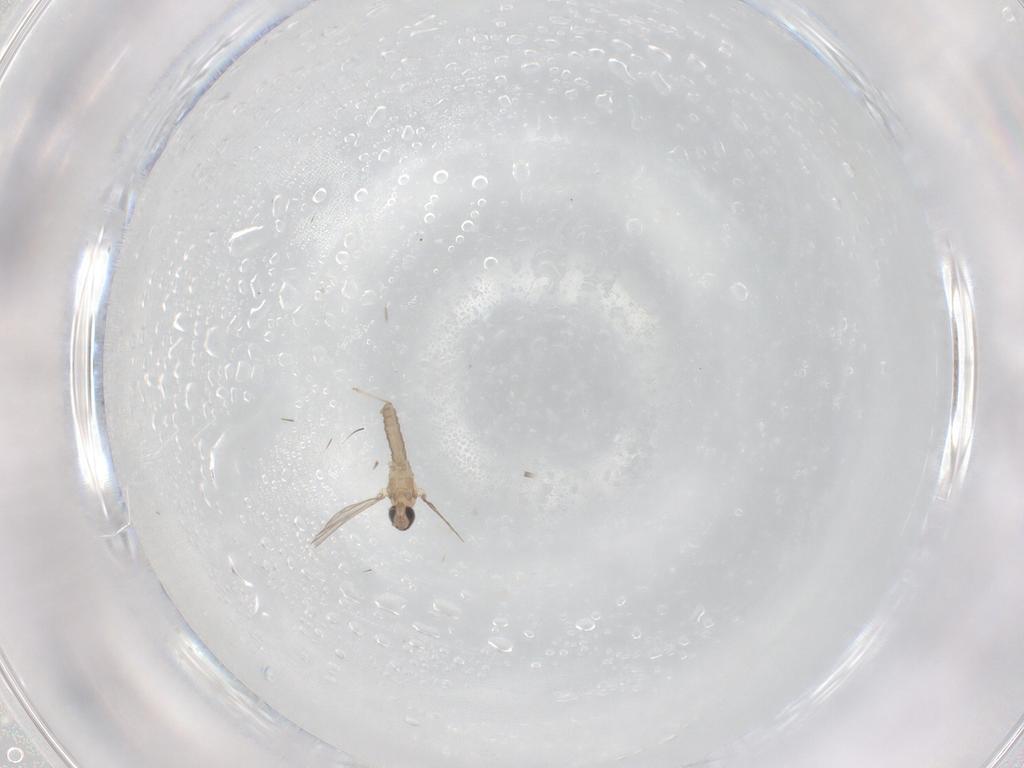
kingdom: Animalia
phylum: Arthropoda
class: Insecta
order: Diptera
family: Cecidomyiidae
